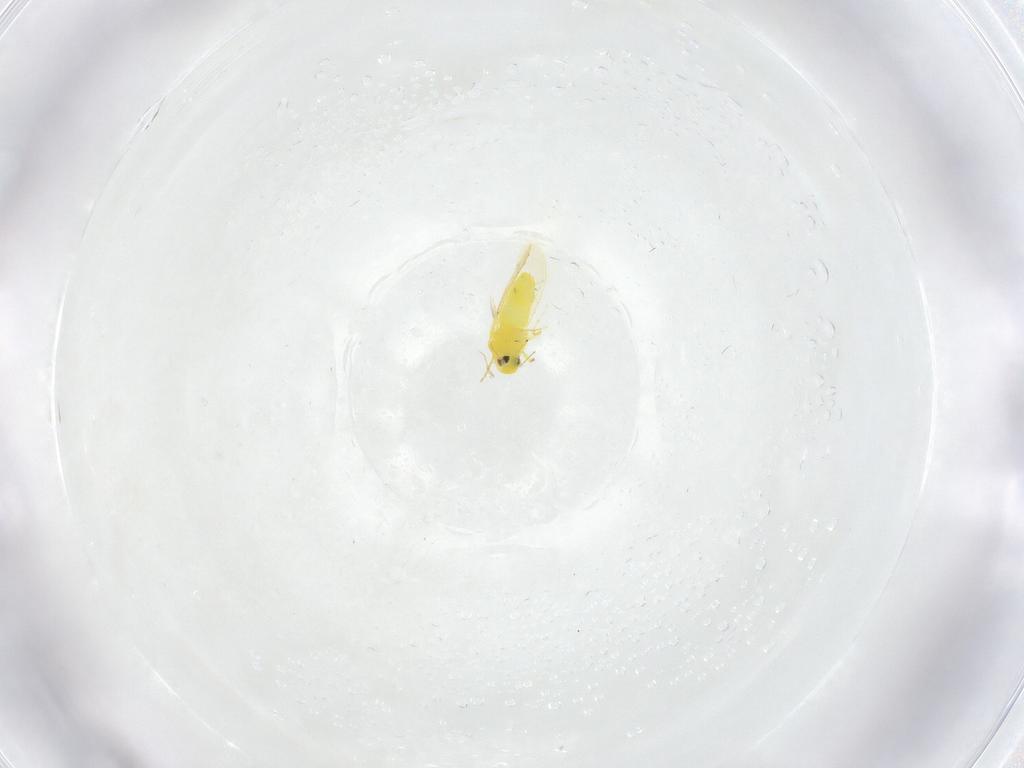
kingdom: Animalia
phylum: Arthropoda
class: Insecta
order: Hemiptera
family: Aleyrodidae
